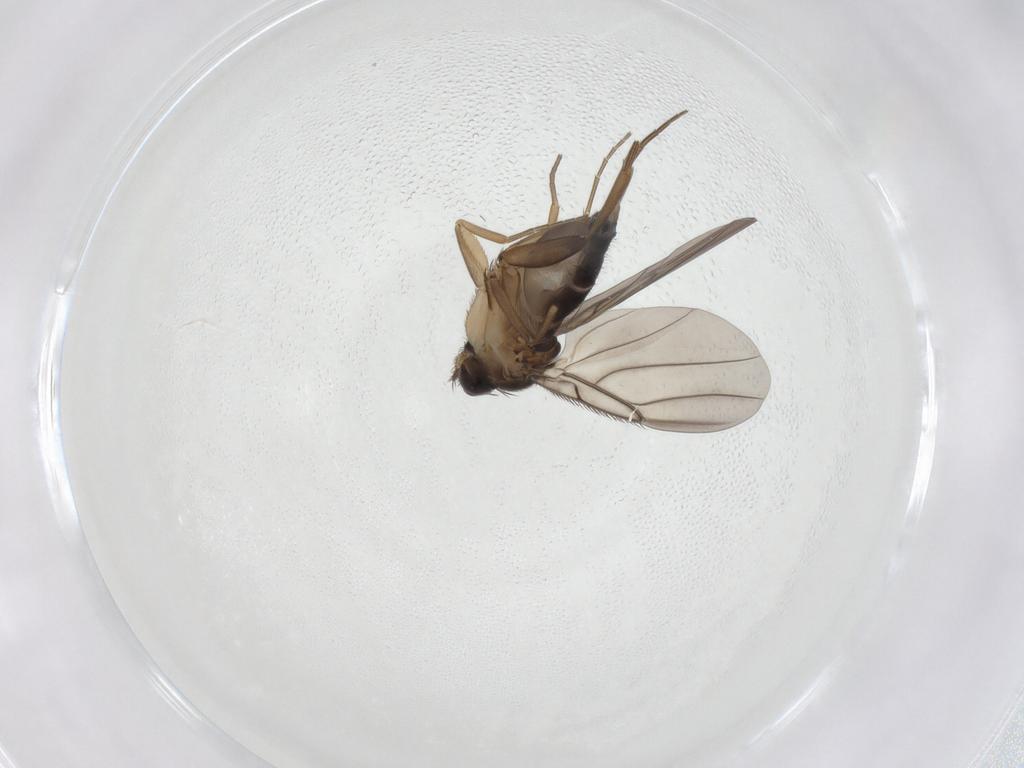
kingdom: Animalia
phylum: Arthropoda
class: Insecta
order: Diptera
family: Phoridae
